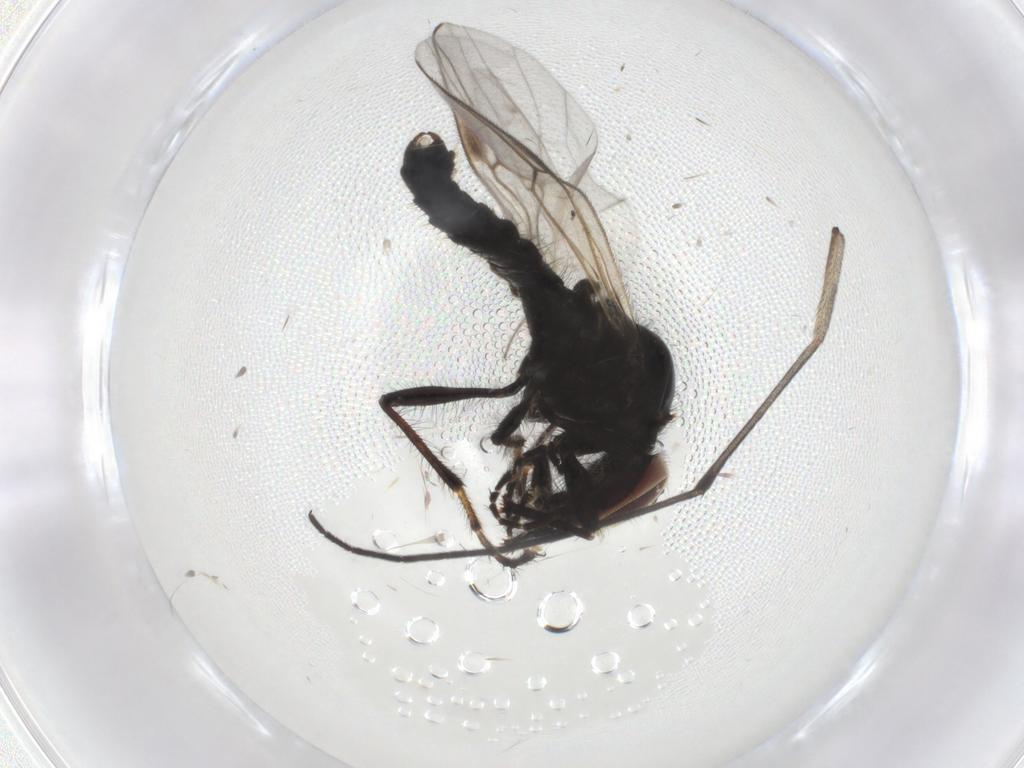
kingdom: Animalia
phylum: Arthropoda
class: Insecta
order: Diptera
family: Bibionidae
